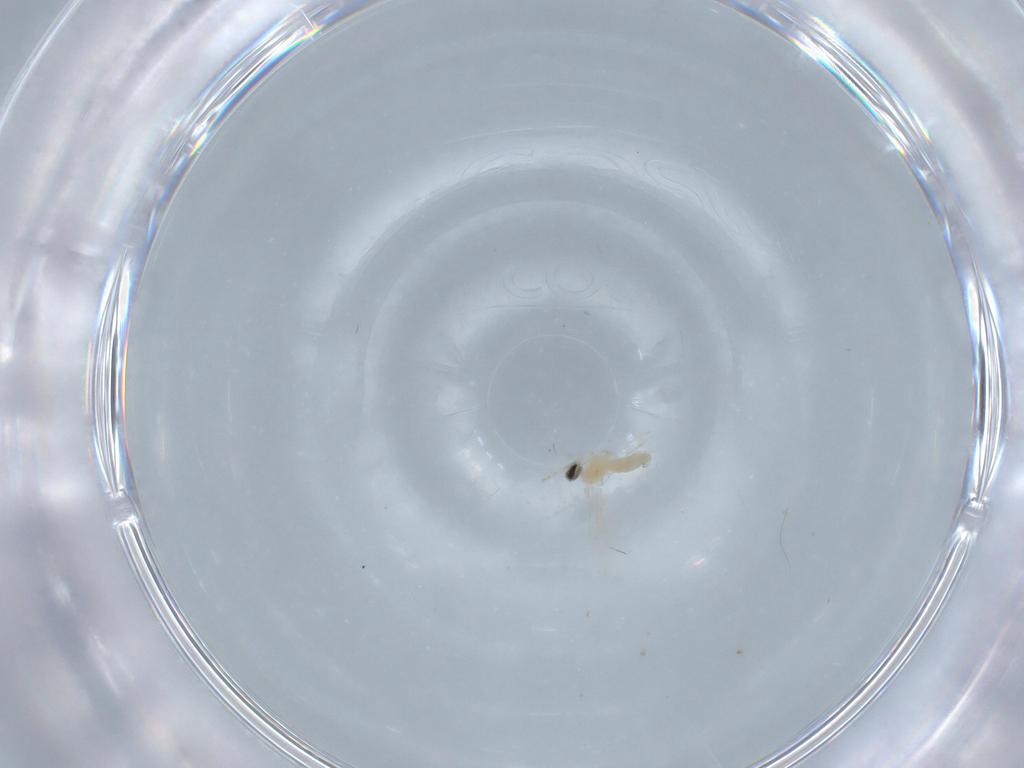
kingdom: Animalia
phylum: Arthropoda
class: Insecta
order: Diptera
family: Cecidomyiidae
